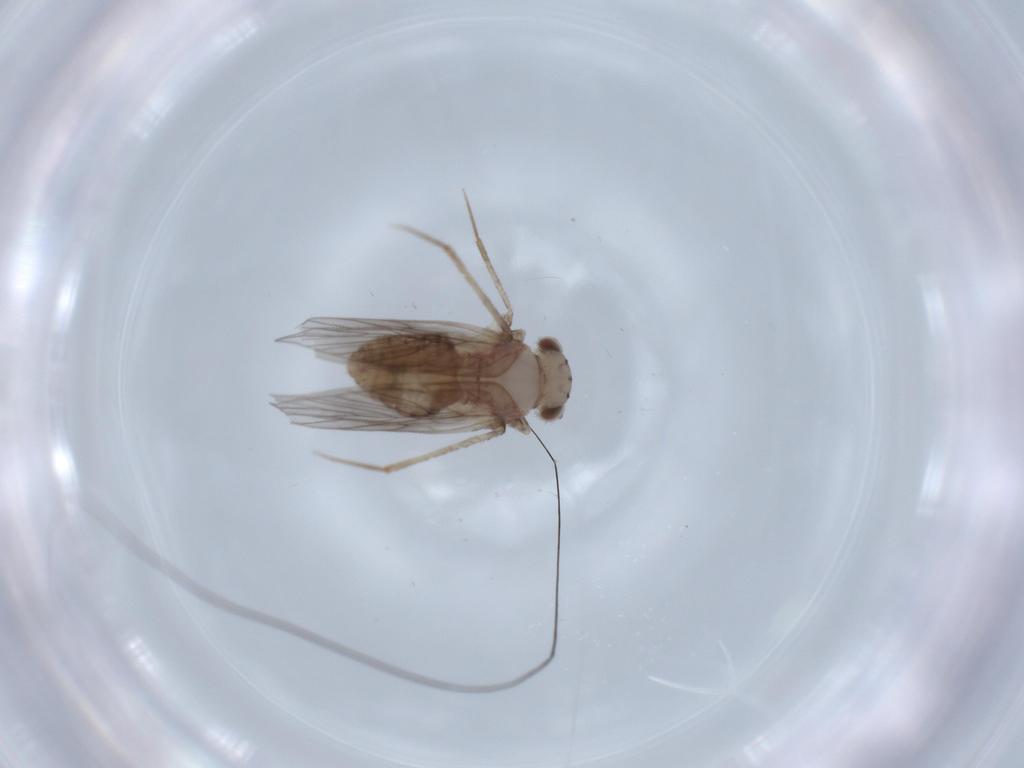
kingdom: Animalia
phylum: Arthropoda
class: Insecta
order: Psocodea
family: Lepidopsocidae
